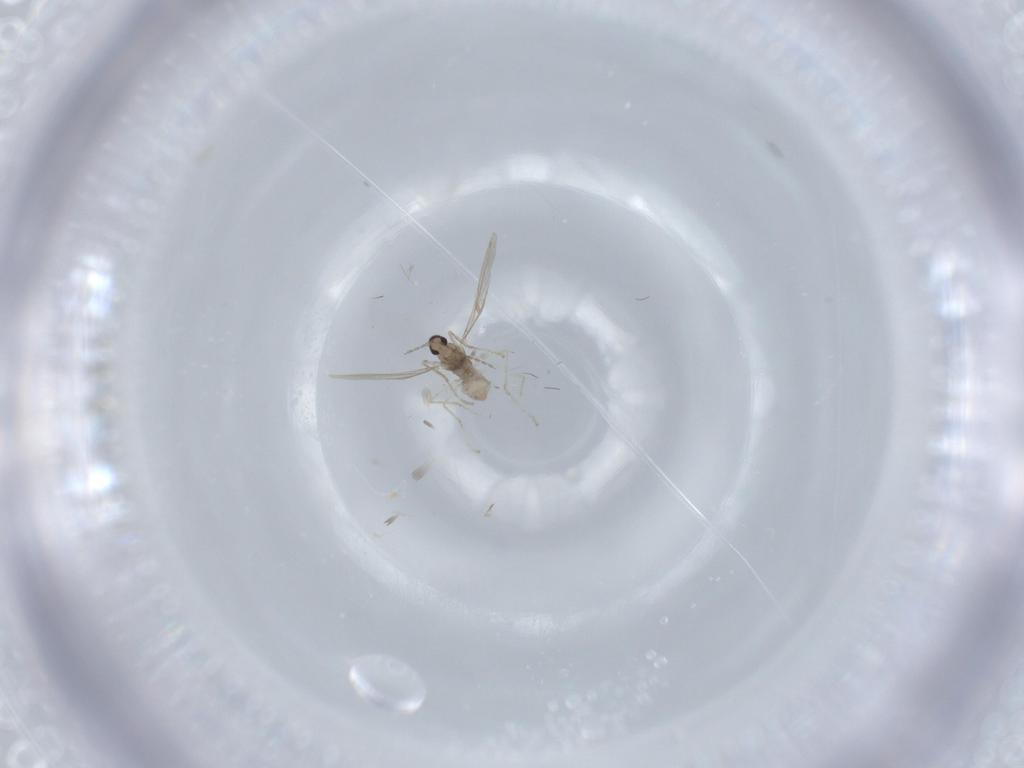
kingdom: Animalia
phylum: Arthropoda
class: Insecta
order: Diptera
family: Cecidomyiidae
